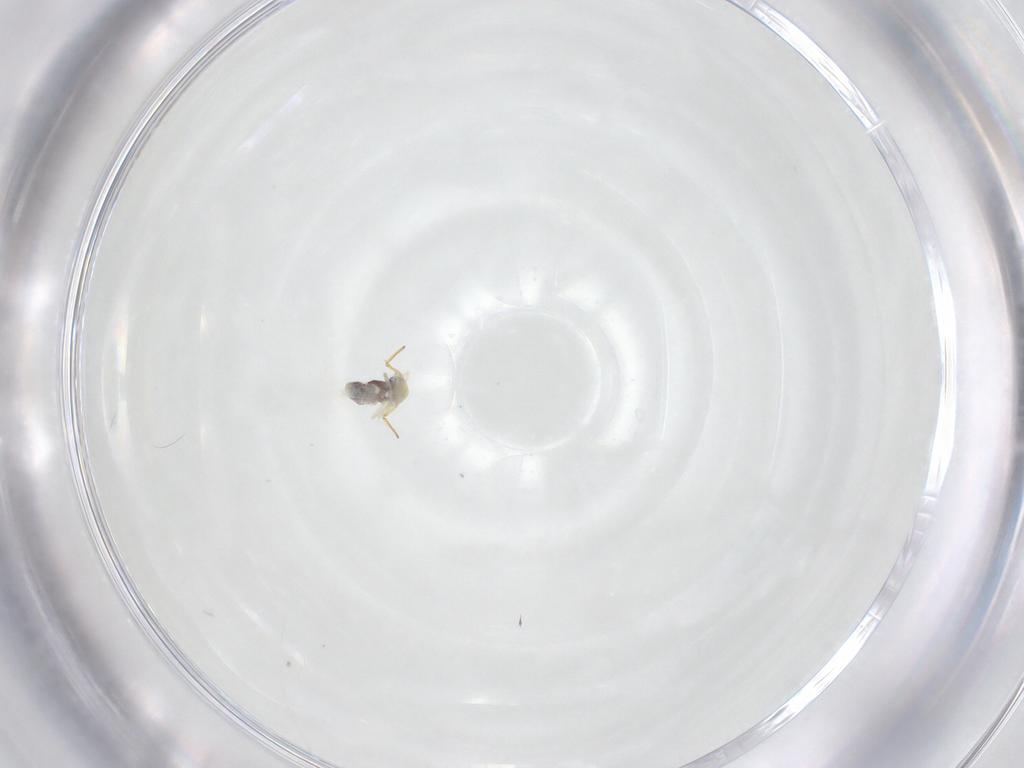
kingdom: Animalia
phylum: Arthropoda
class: Collembola
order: Symphypleona
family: Bourletiellidae
